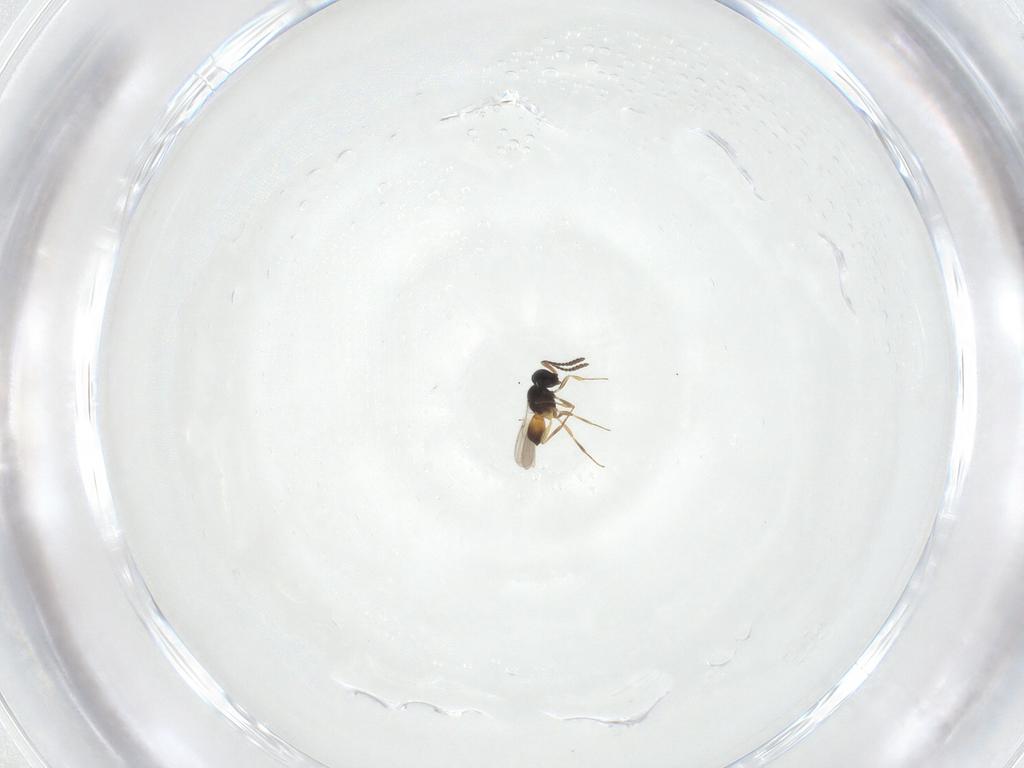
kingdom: Animalia
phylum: Arthropoda
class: Insecta
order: Hymenoptera
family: Scelionidae
